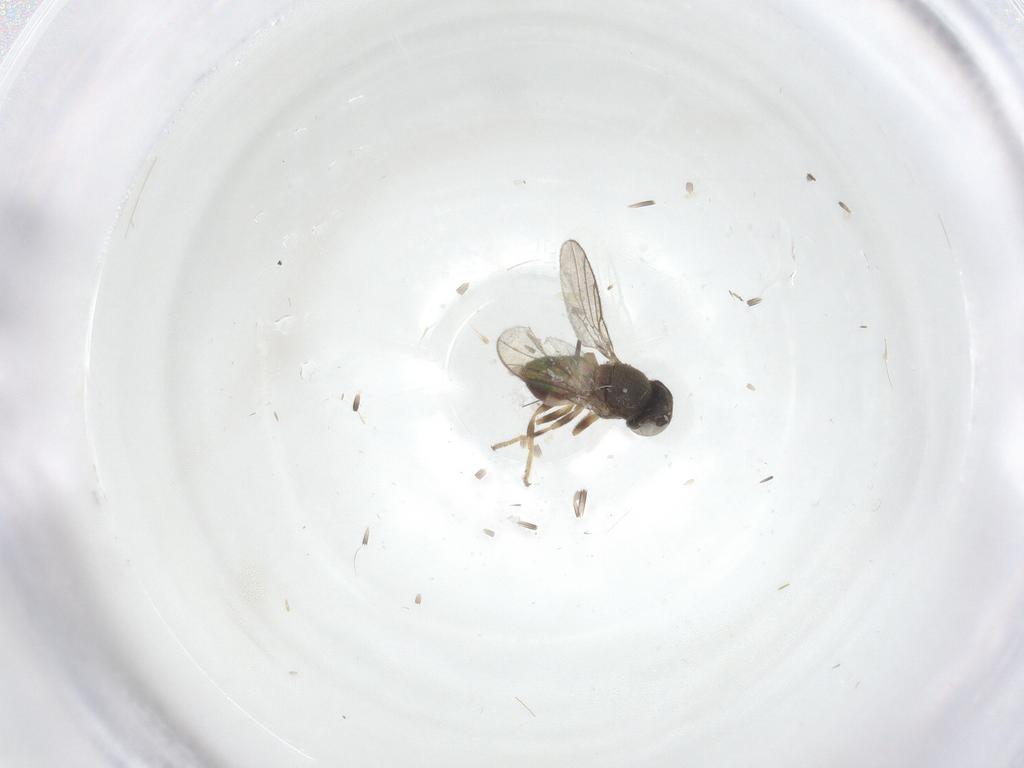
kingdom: Animalia
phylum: Arthropoda
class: Insecta
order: Diptera
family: Chloropidae
